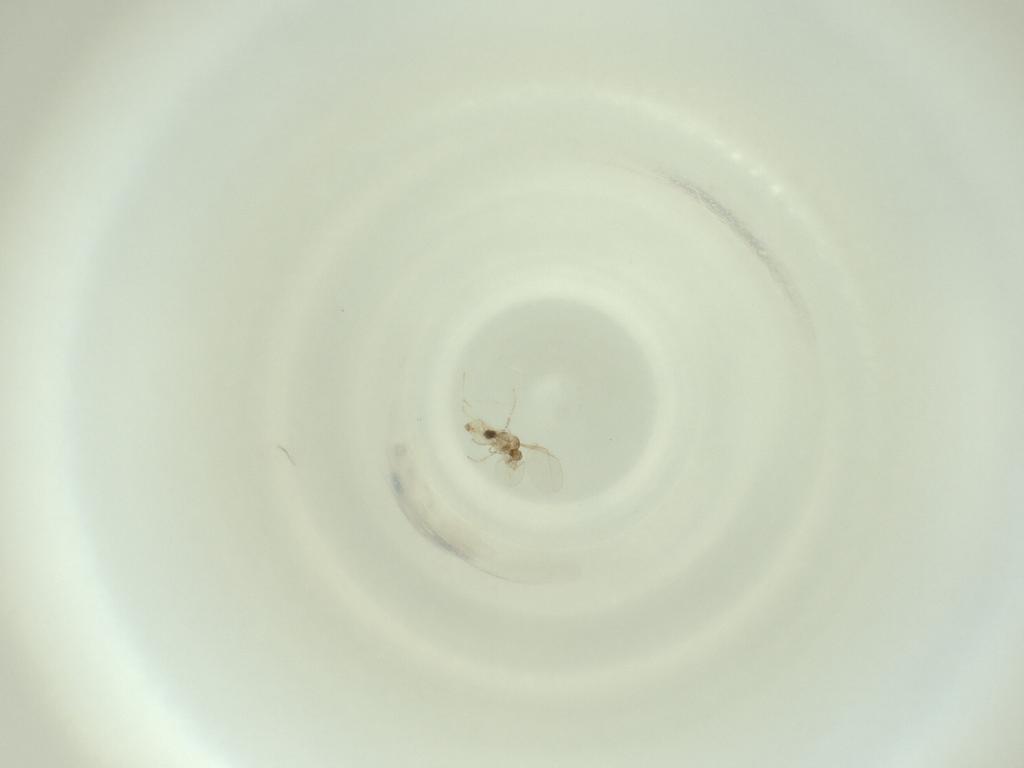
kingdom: Animalia
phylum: Arthropoda
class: Insecta
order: Diptera
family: Cecidomyiidae
